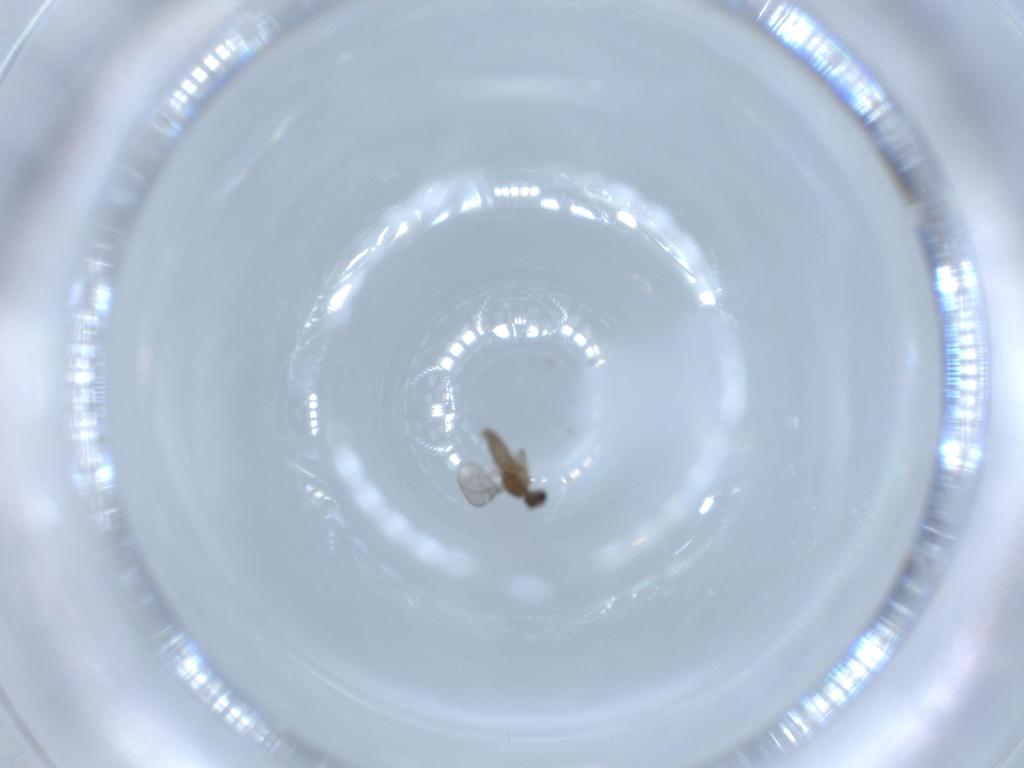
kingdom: Animalia
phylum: Arthropoda
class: Insecta
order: Diptera
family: Cecidomyiidae
